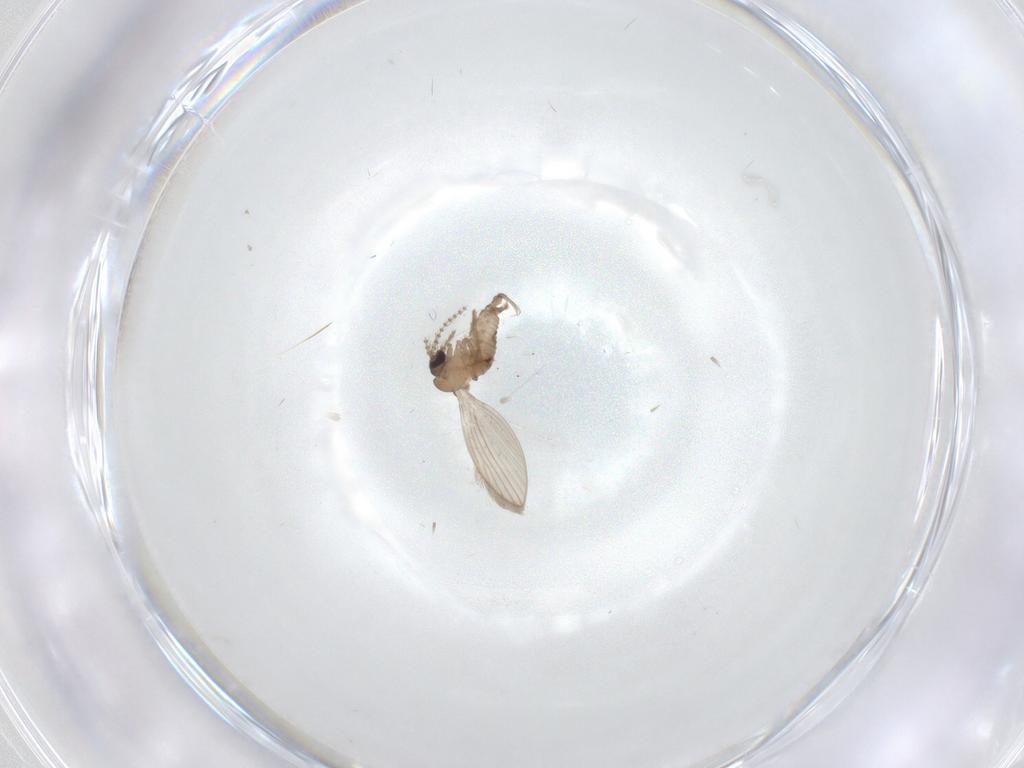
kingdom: Animalia
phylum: Arthropoda
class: Insecta
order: Diptera
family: Psychodidae
